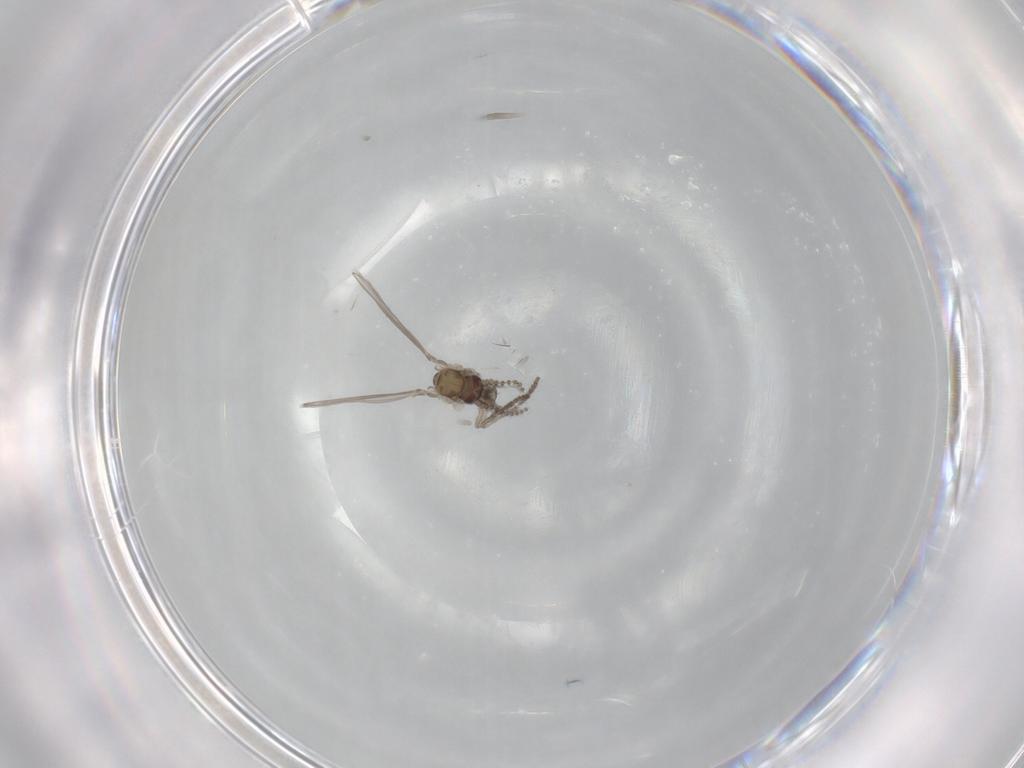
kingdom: Animalia
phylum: Arthropoda
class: Insecta
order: Diptera
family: Psychodidae
